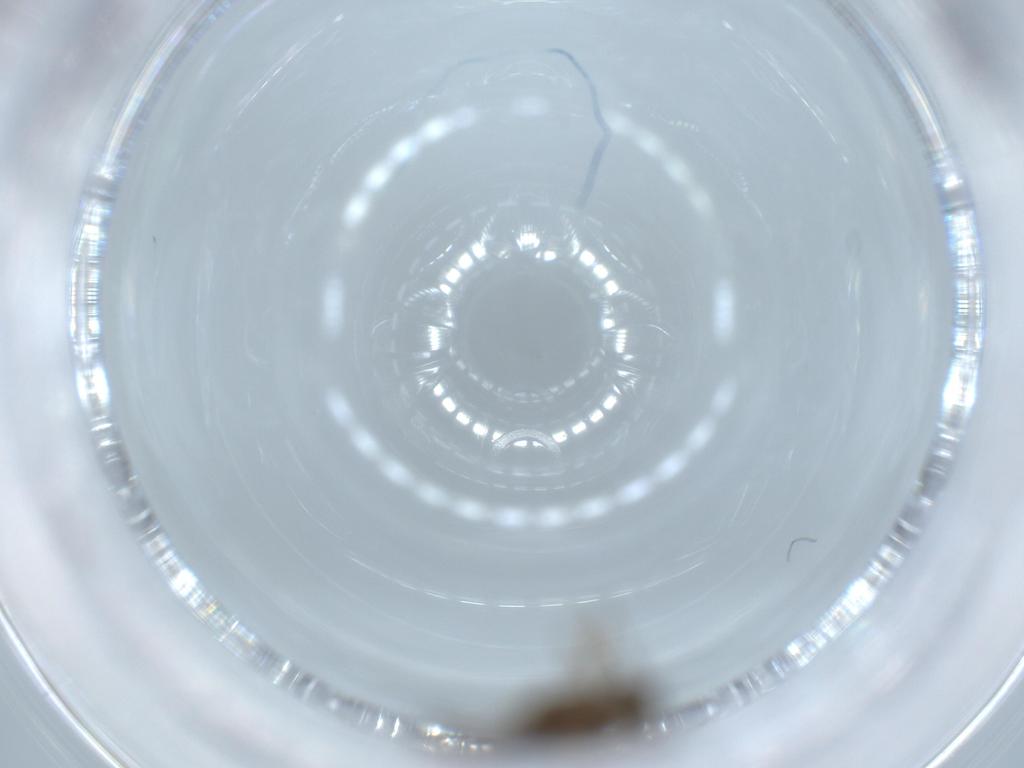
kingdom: Animalia
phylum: Arthropoda
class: Insecta
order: Diptera
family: Chironomidae
